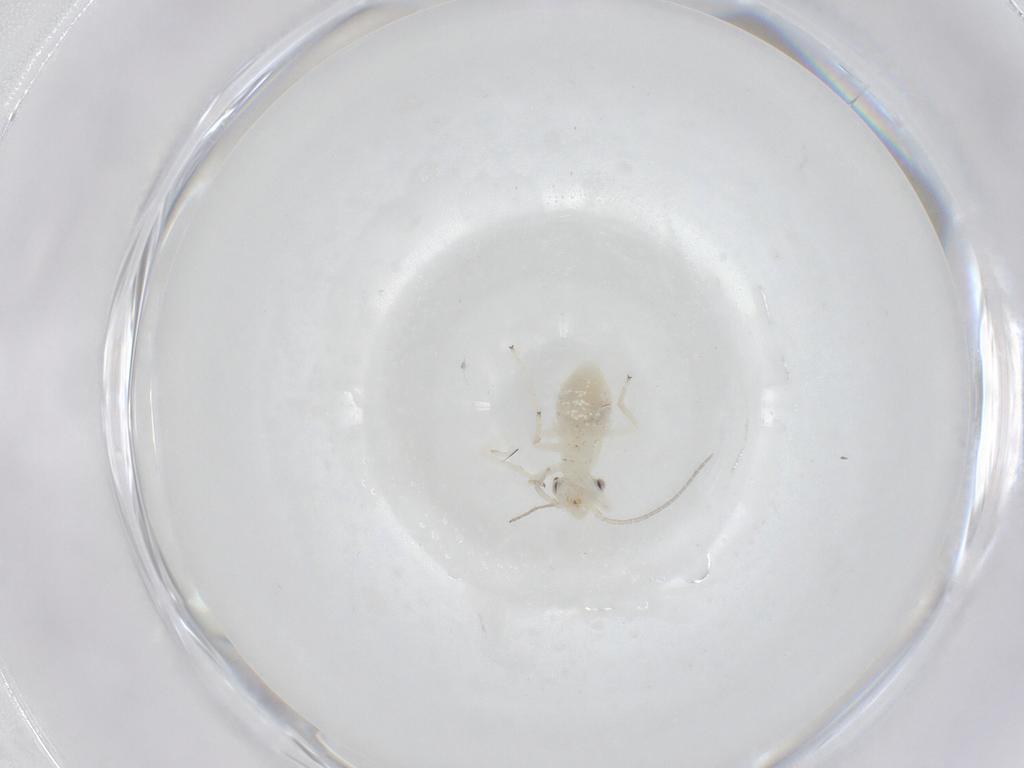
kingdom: Animalia
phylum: Arthropoda
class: Insecta
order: Psocodea
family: Caeciliusidae
